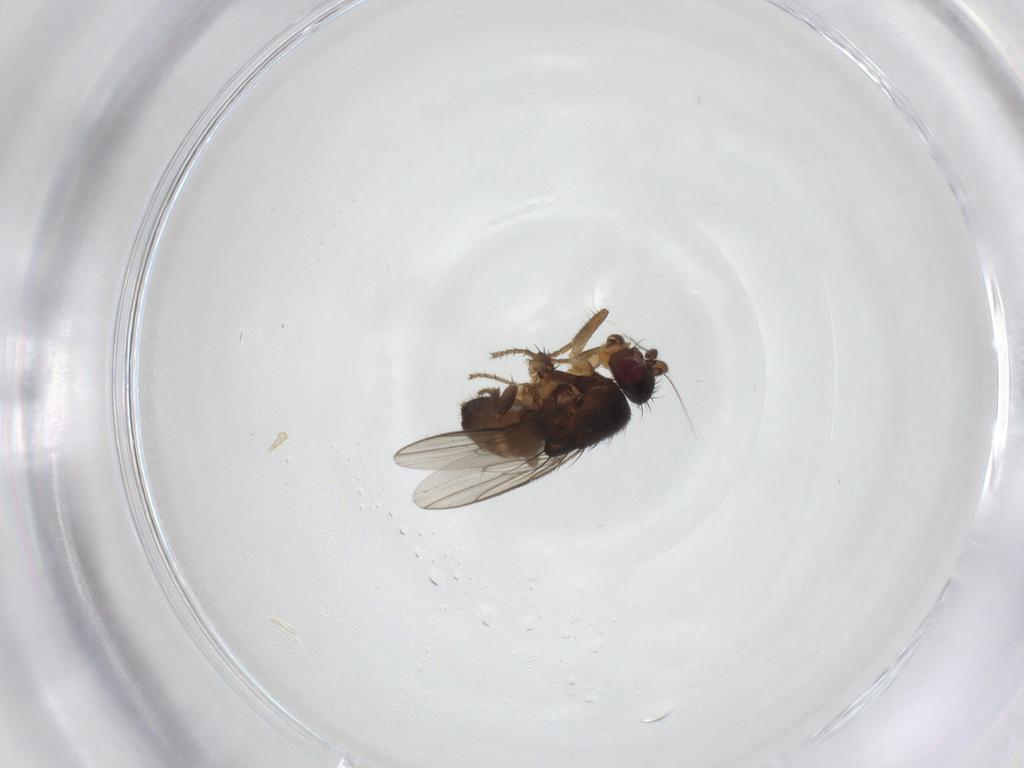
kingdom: Animalia
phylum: Arthropoda
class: Insecta
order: Diptera
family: Sphaeroceridae
